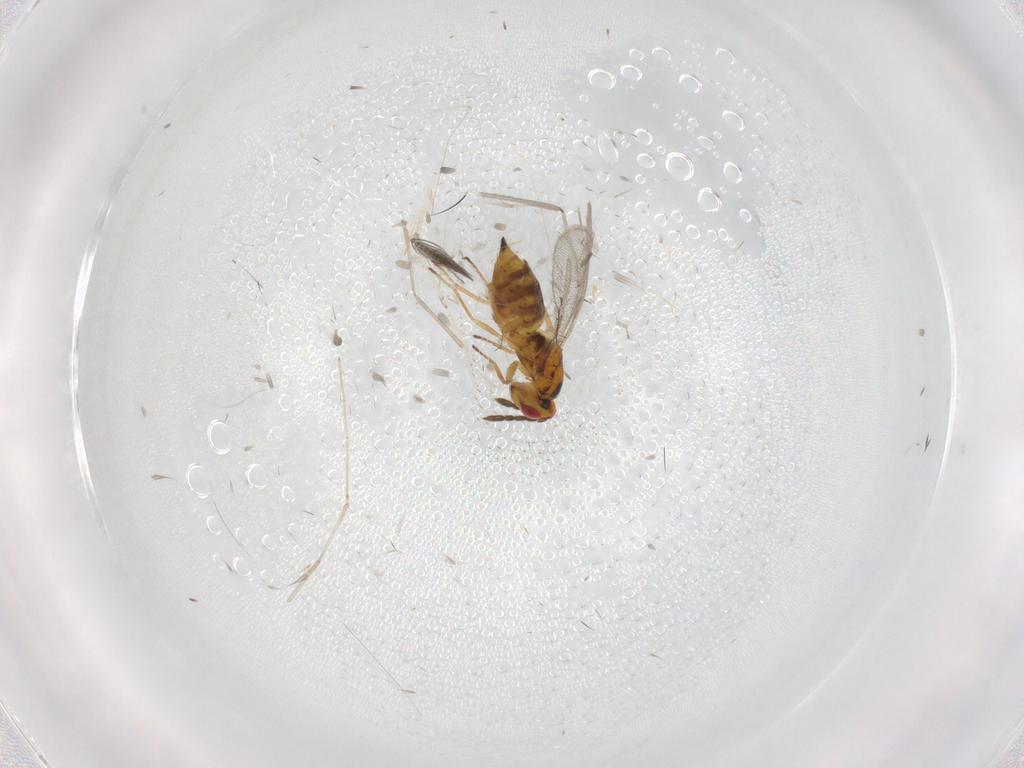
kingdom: Animalia
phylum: Arthropoda
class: Insecta
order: Hymenoptera
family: Eulophidae
